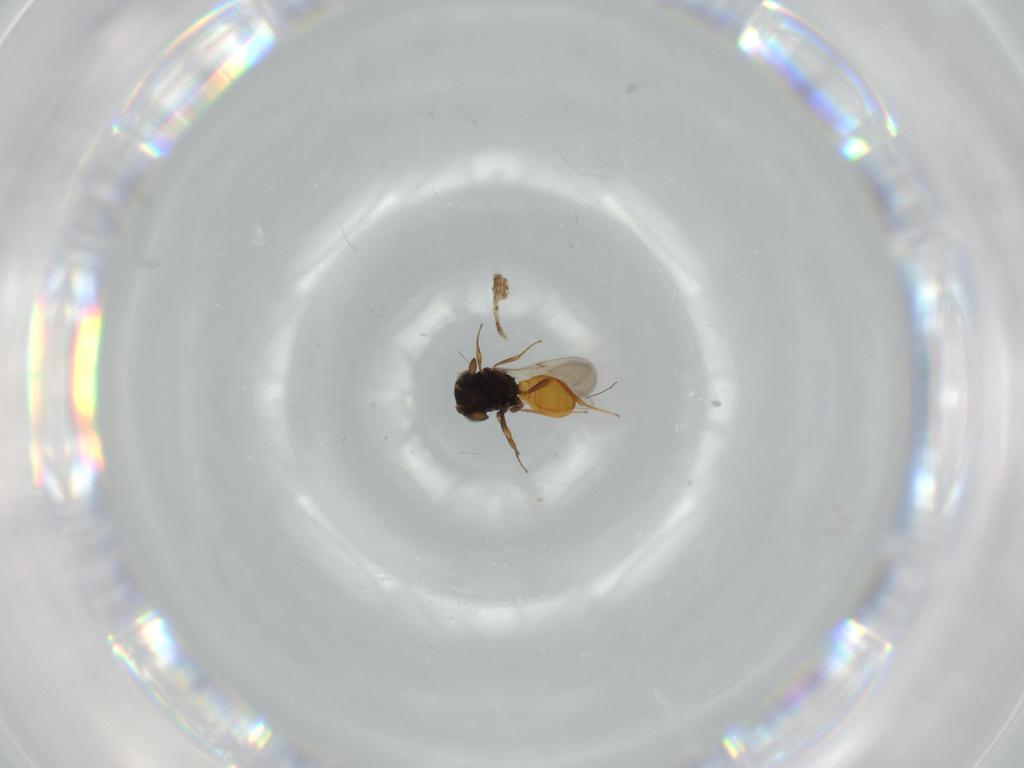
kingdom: Animalia
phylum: Arthropoda
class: Insecta
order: Hymenoptera
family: Scelionidae
